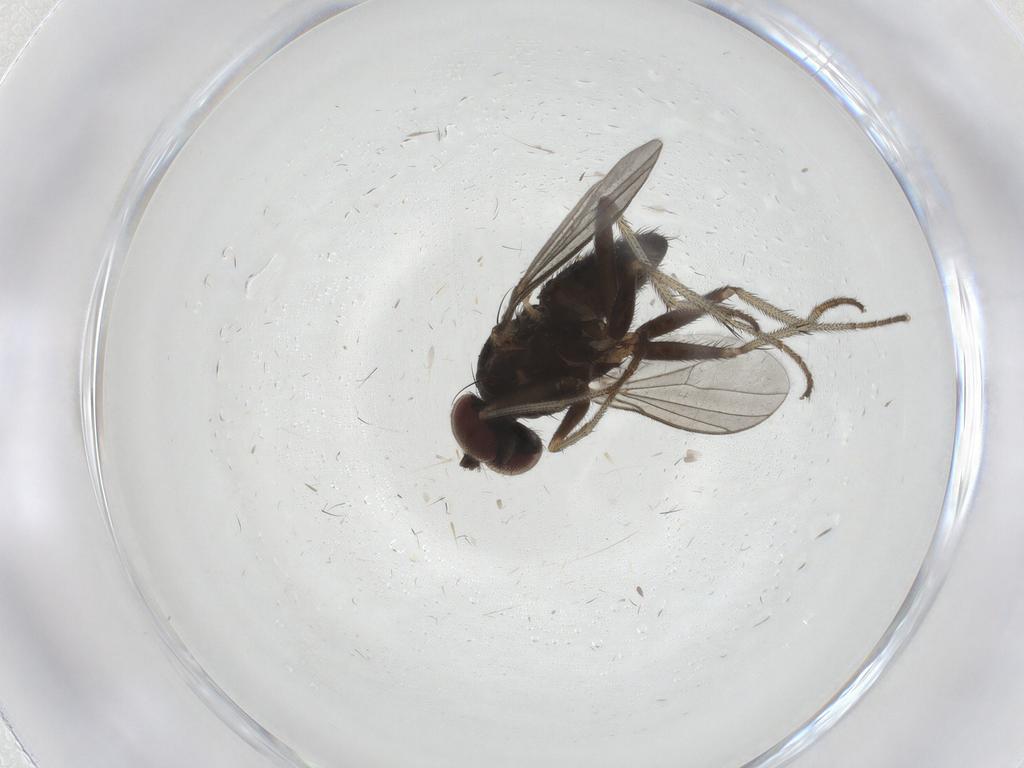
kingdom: Animalia
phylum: Arthropoda
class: Insecta
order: Diptera
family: Dolichopodidae
